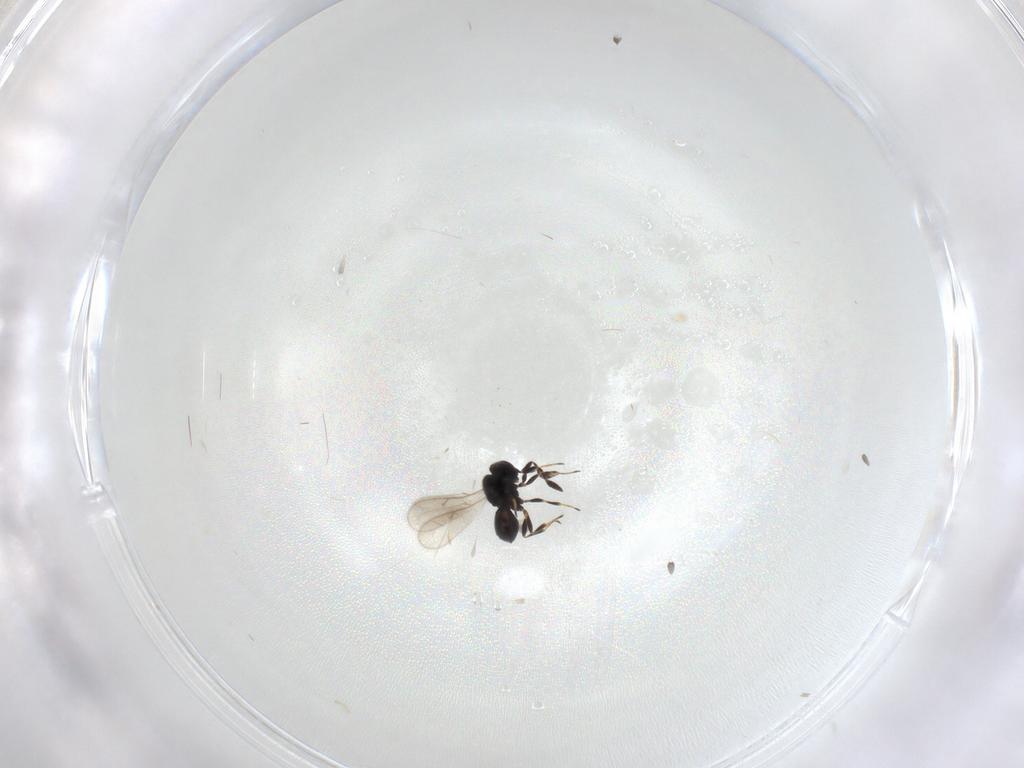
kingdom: Animalia
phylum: Arthropoda
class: Insecta
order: Hymenoptera
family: Scelionidae
